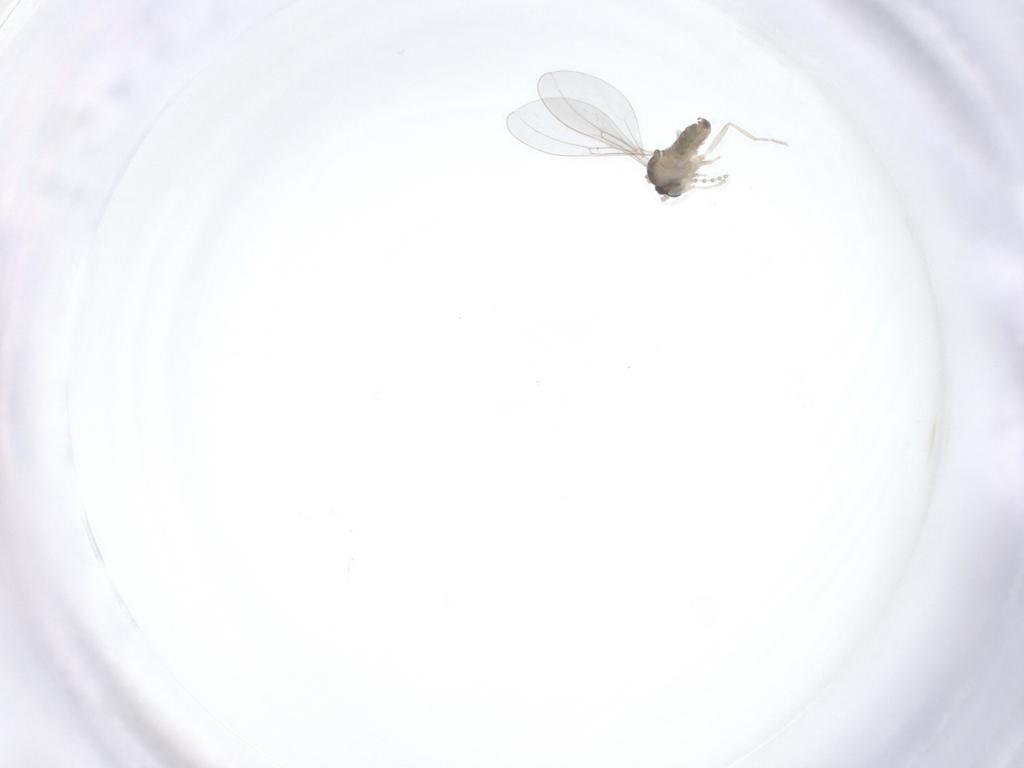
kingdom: Animalia
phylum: Arthropoda
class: Insecta
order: Diptera
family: Cecidomyiidae
